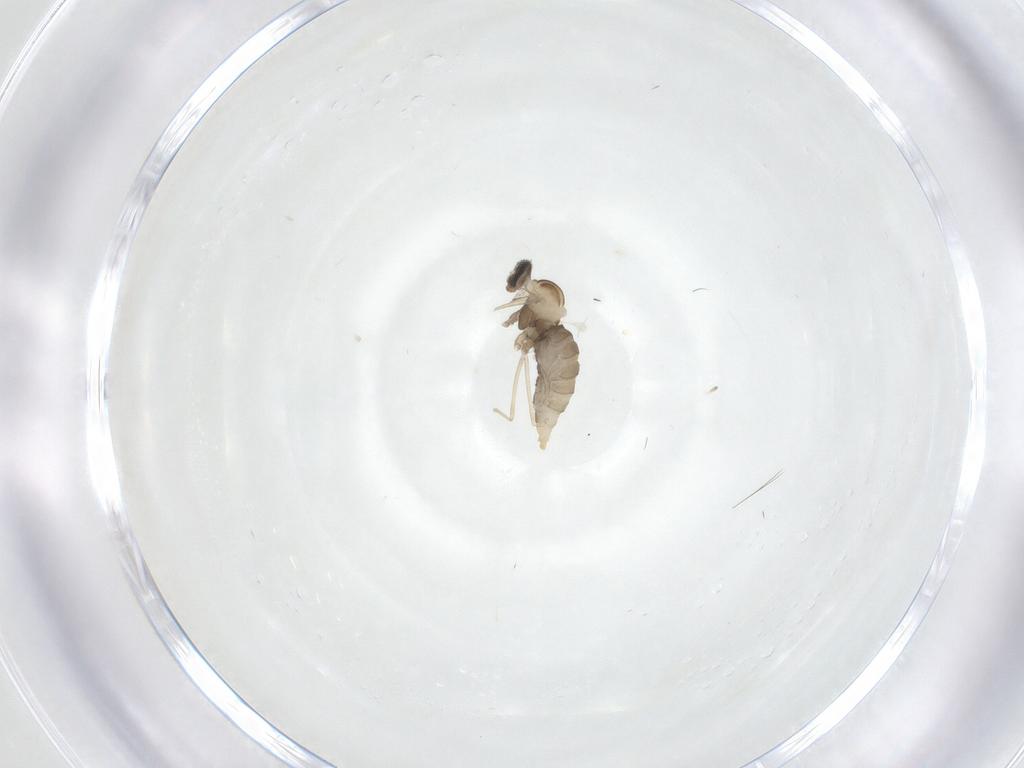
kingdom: Animalia
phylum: Arthropoda
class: Insecta
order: Diptera
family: Cecidomyiidae
